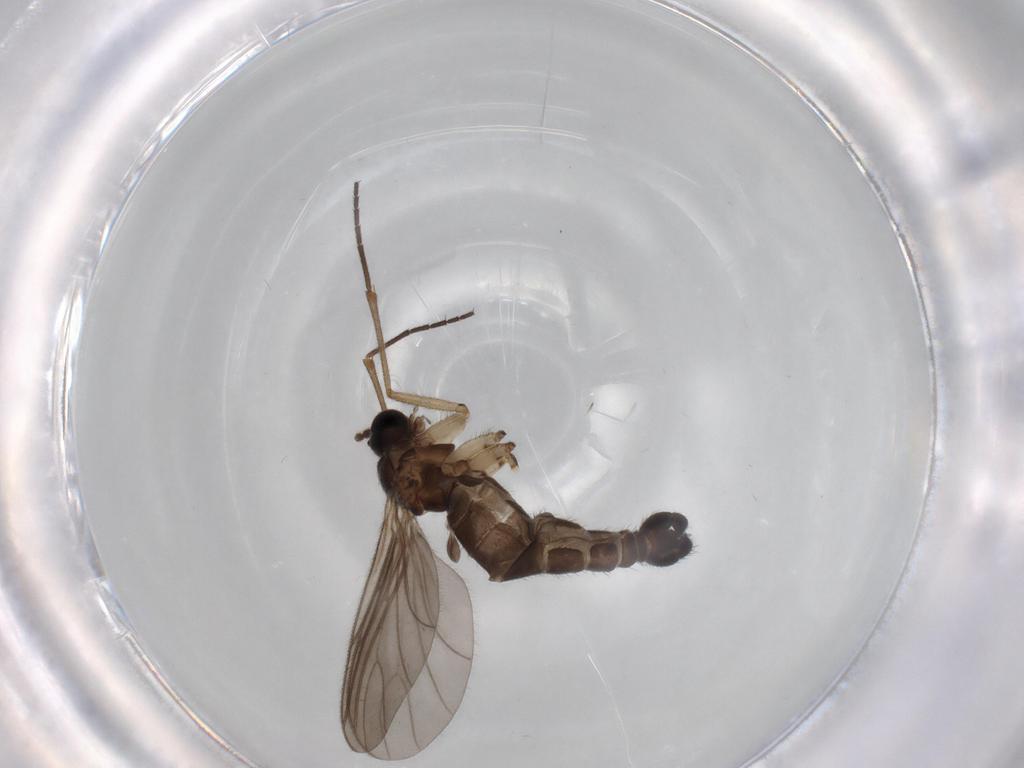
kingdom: Animalia
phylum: Arthropoda
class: Insecta
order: Diptera
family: Sciaridae
